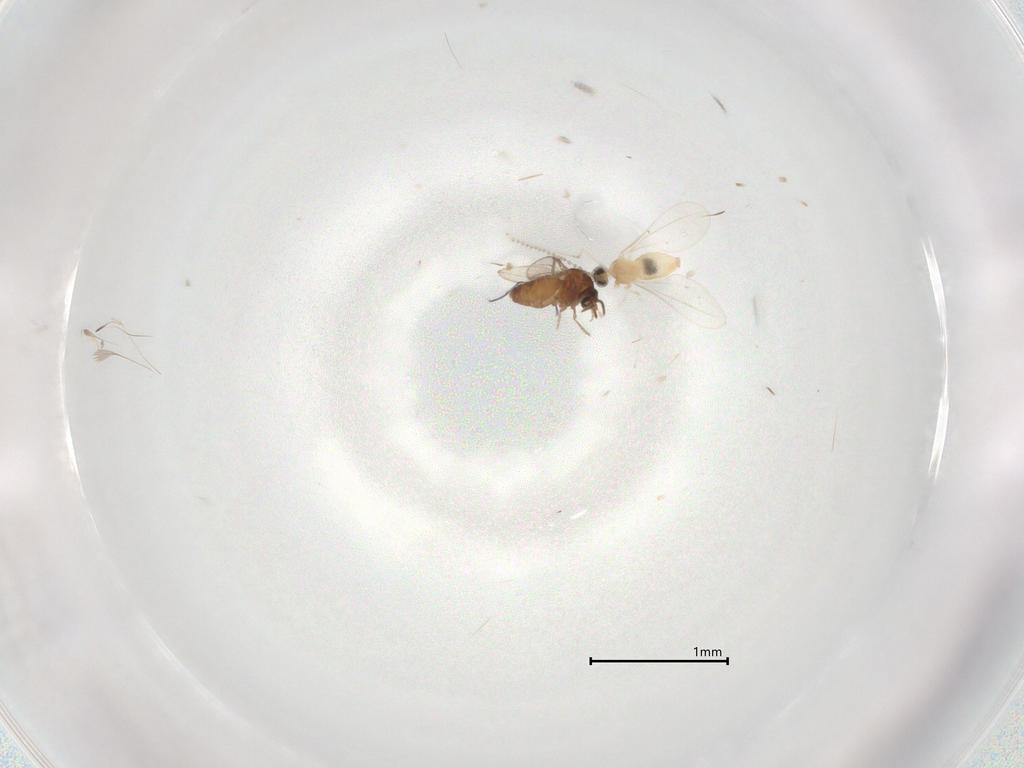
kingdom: Animalia
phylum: Arthropoda
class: Insecta
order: Diptera
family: Cecidomyiidae
